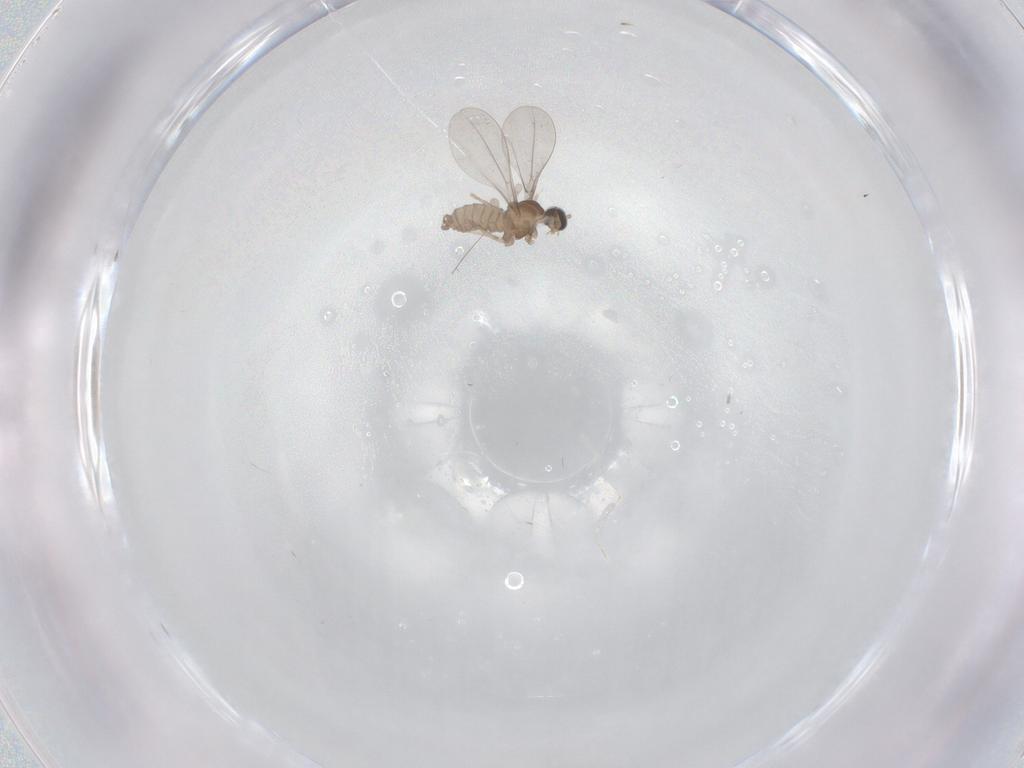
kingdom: Animalia
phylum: Arthropoda
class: Insecta
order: Diptera
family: Cecidomyiidae
